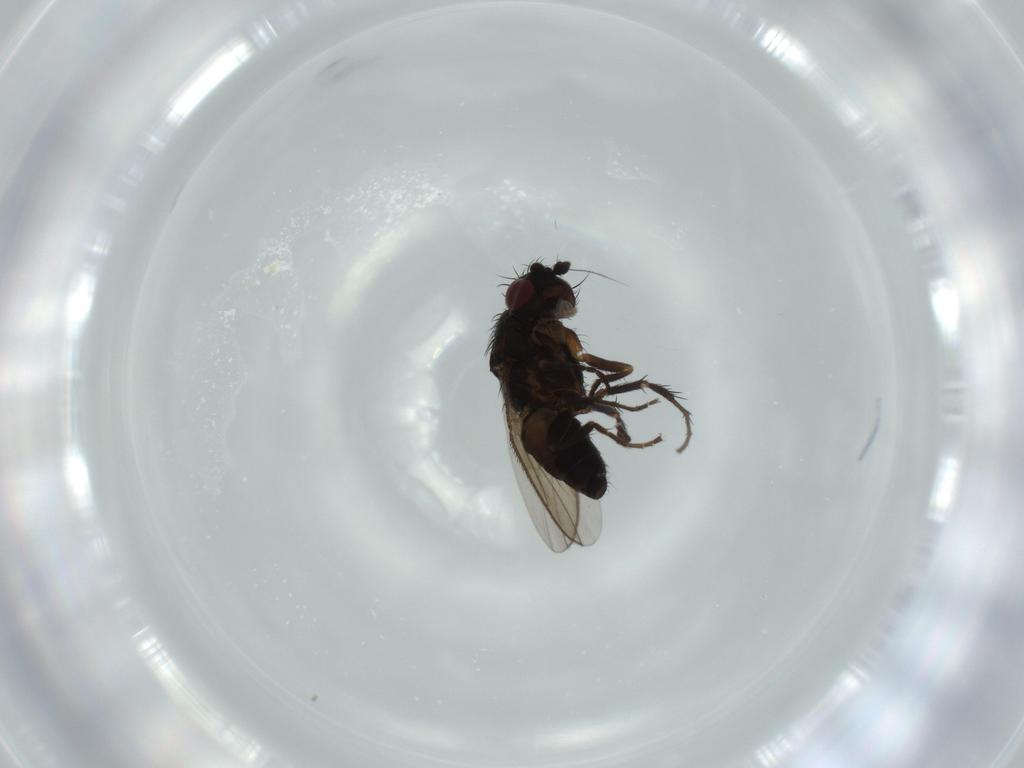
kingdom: Animalia
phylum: Arthropoda
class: Insecta
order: Diptera
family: Sphaeroceridae
